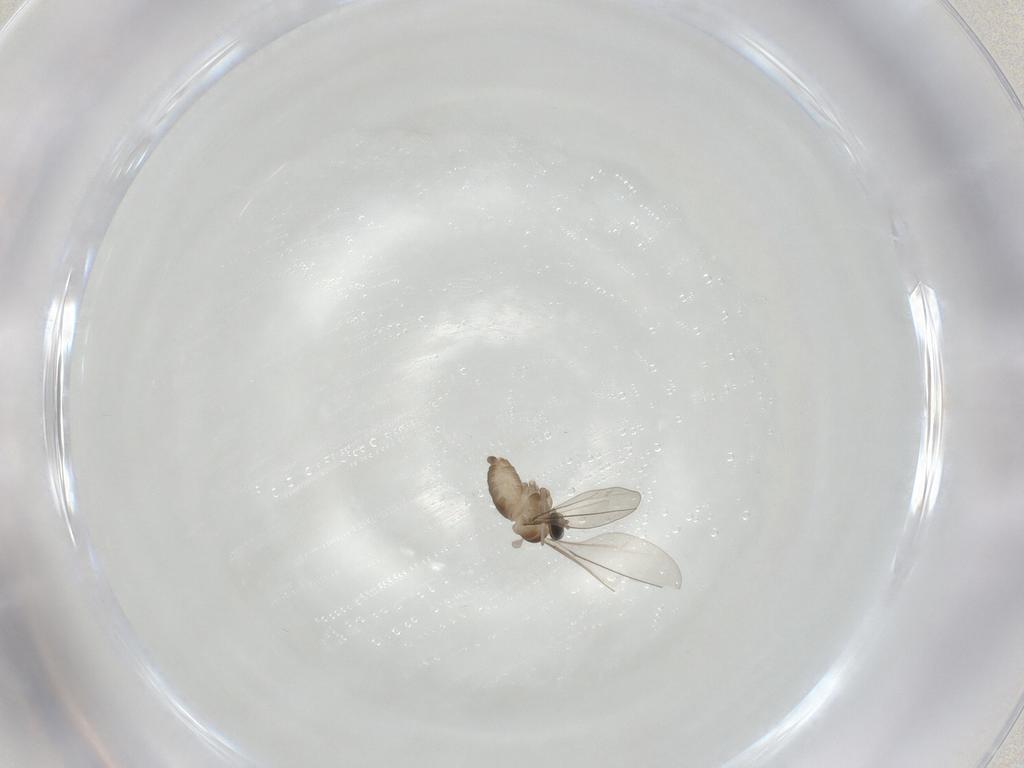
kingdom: Animalia
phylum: Arthropoda
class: Insecta
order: Diptera
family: Cecidomyiidae
